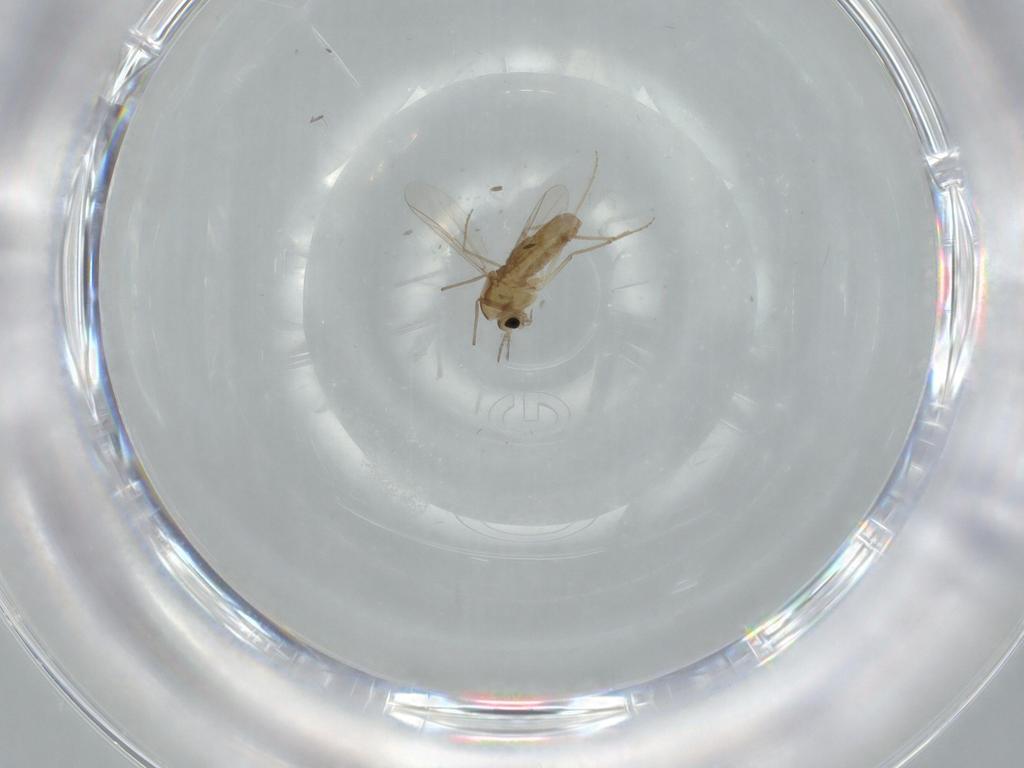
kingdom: Animalia
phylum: Arthropoda
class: Insecta
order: Diptera
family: Chironomidae
